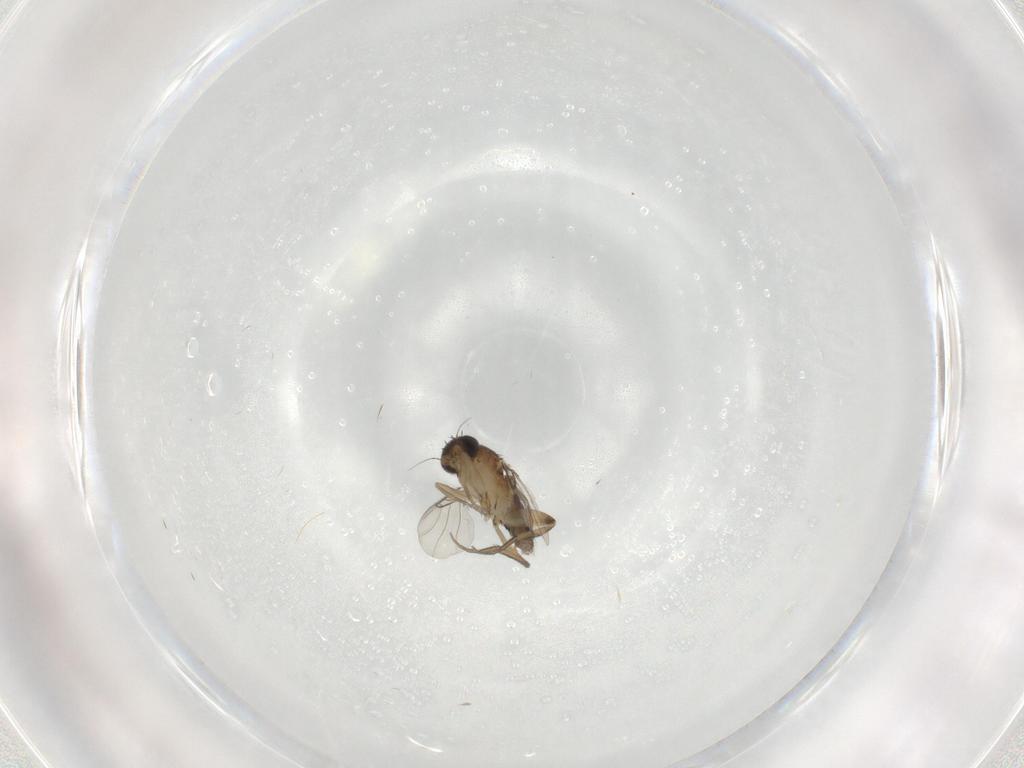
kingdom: Animalia
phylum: Arthropoda
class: Insecta
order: Diptera
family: Phoridae
